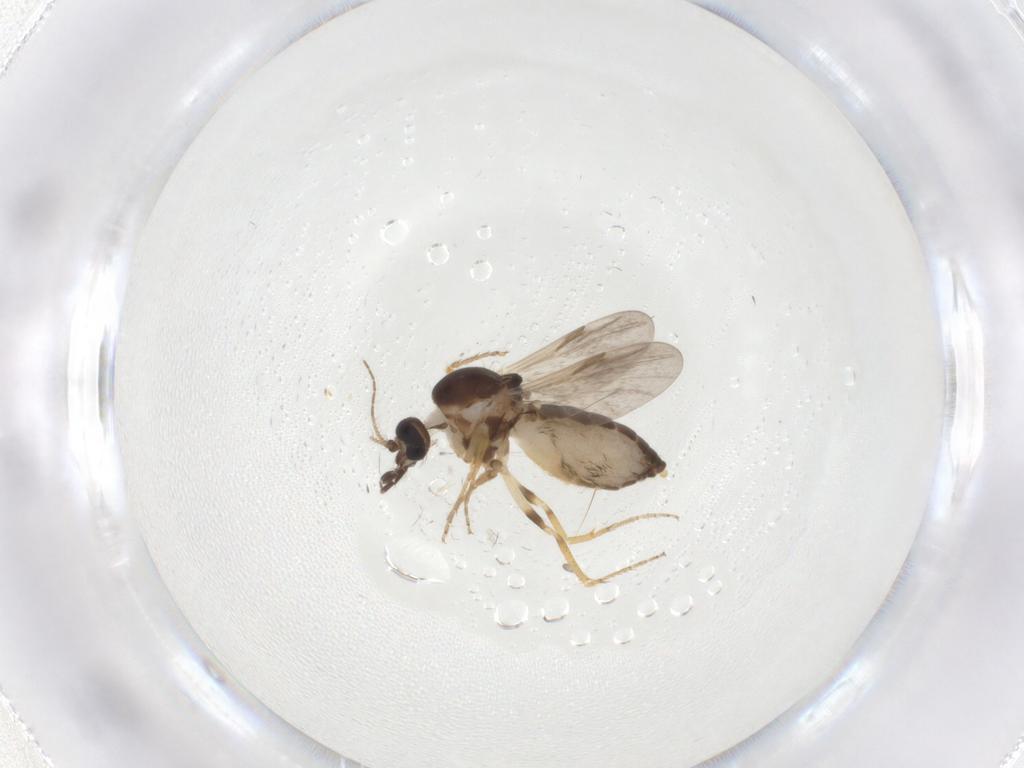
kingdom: Animalia
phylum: Arthropoda
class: Insecta
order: Diptera
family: Ceratopogonidae
